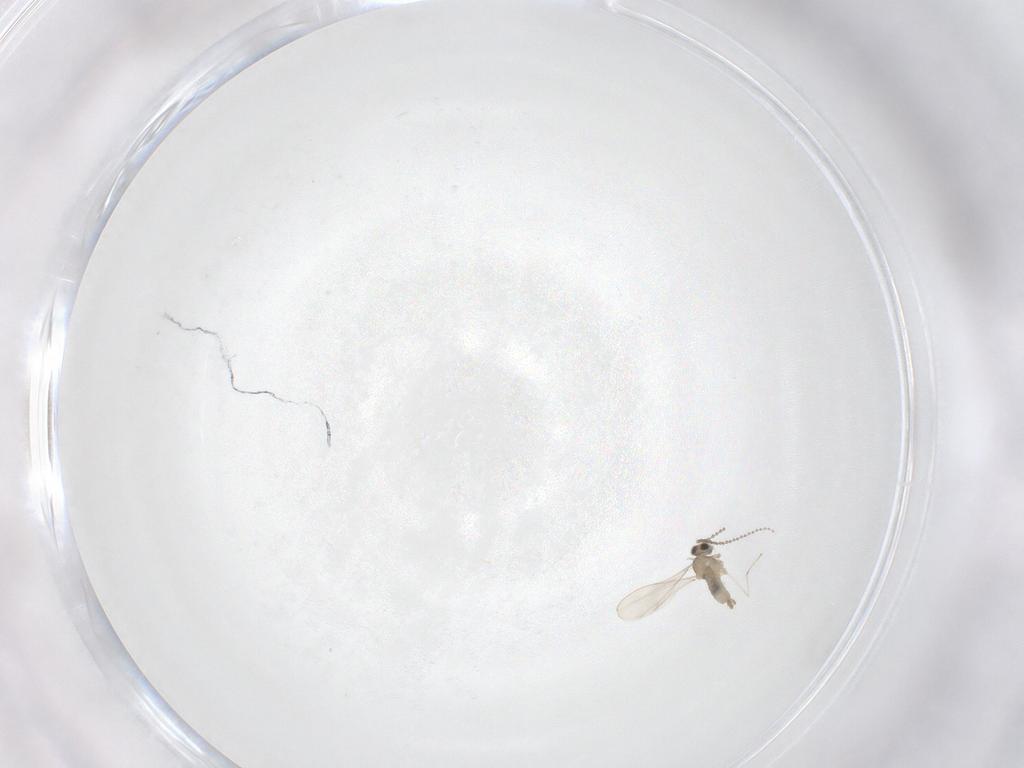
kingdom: Animalia
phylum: Arthropoda
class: Insecta
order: Diptera
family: Cecidomyiidae
